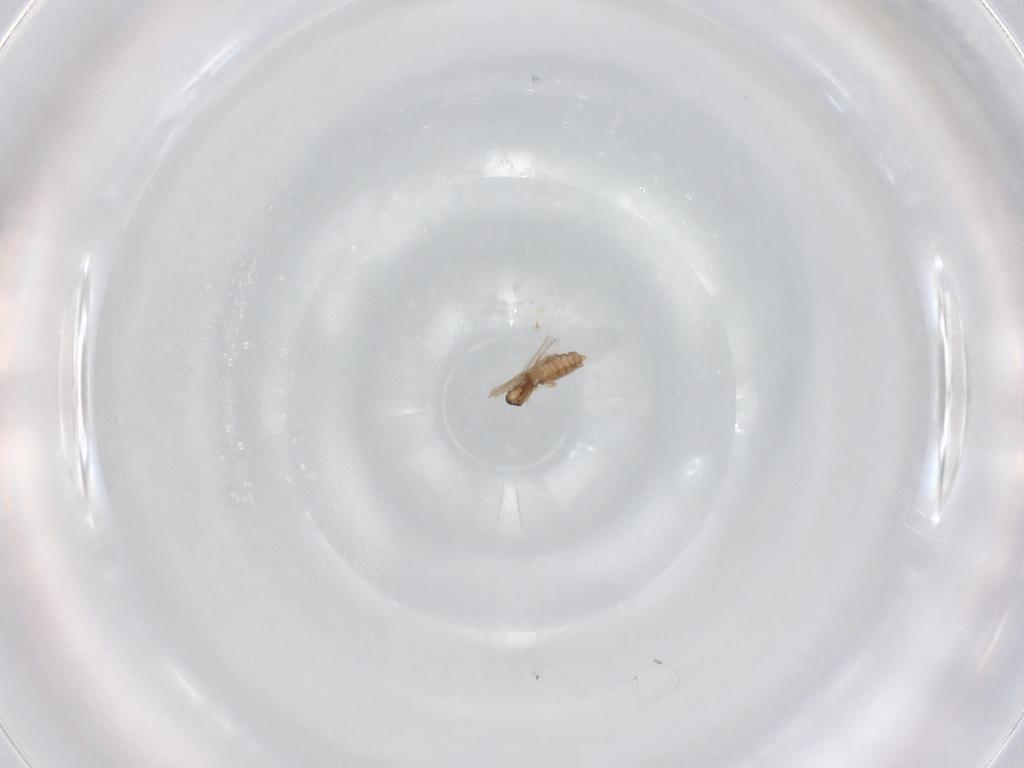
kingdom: Animalia
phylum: Arthropoda
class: Insecta
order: Diptera
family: Cecidomyiidae
